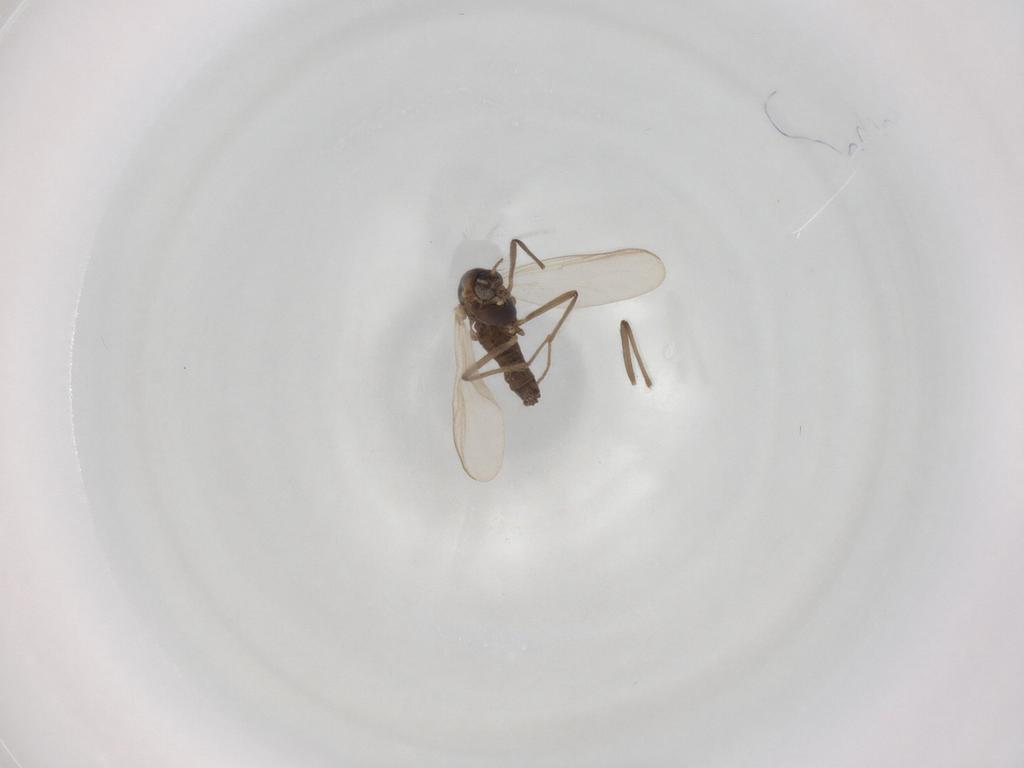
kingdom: Animalia
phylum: Arthropoda
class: Insecta
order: Diptera
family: Chironomidae
